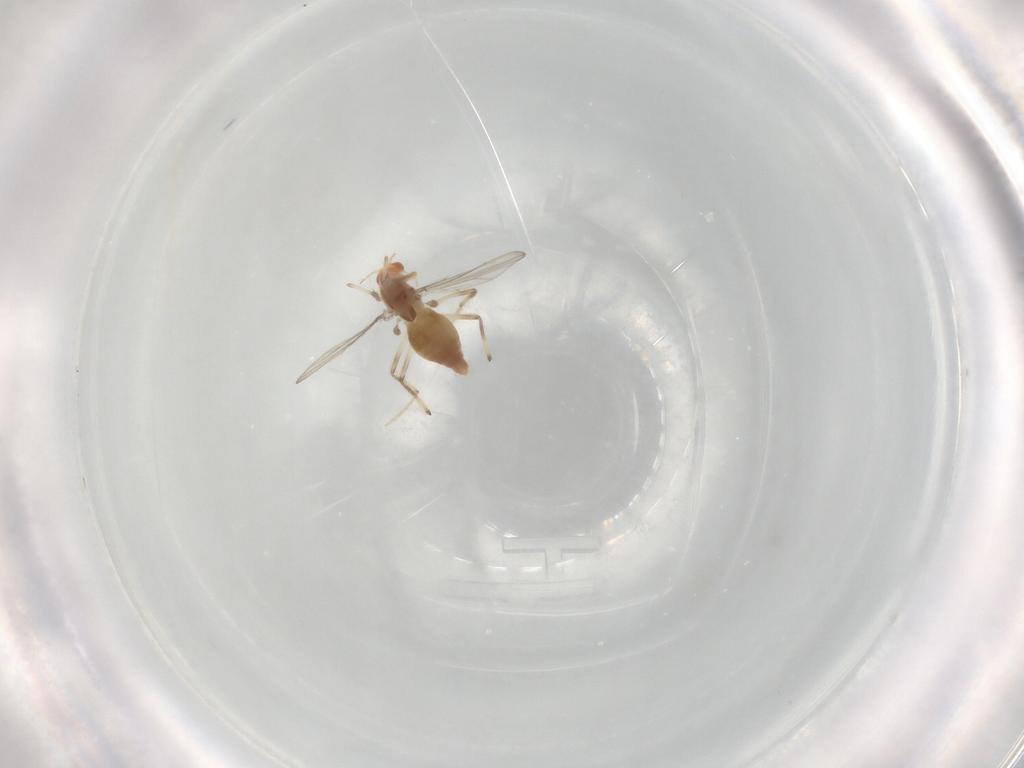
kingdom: Animalia
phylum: Arthropoda
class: Insecta
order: Diptera
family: Chironomidae
